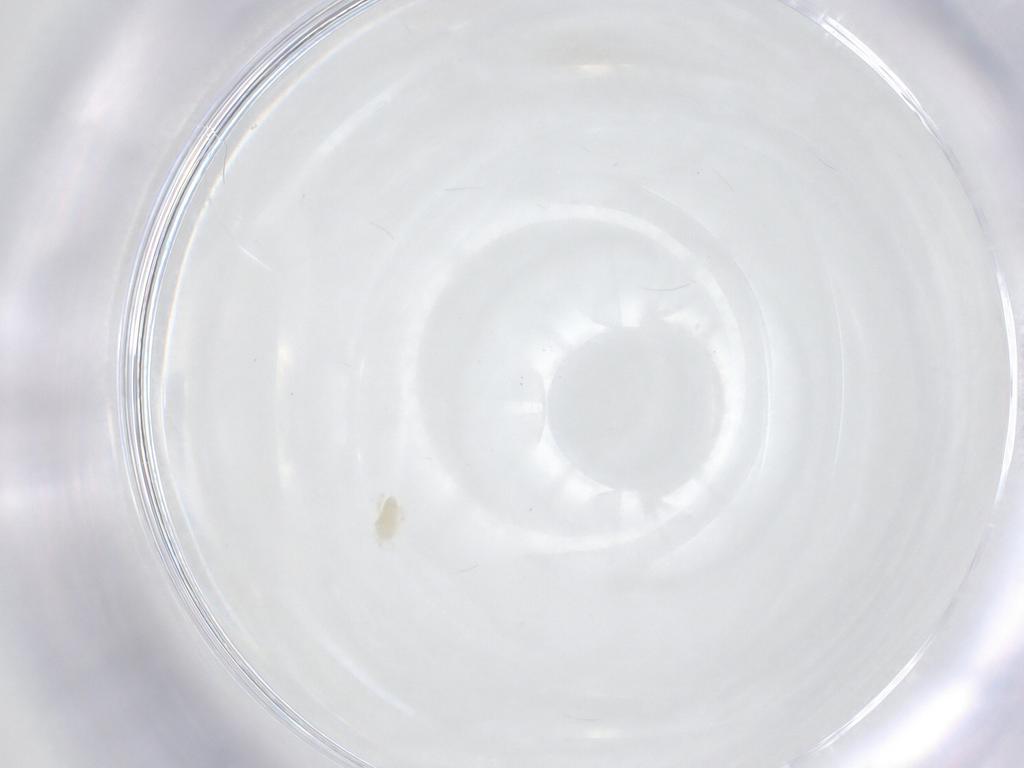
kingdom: Animalia
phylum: Arthropoda
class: Arachnida
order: Trombidiformes
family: Eupodidae
